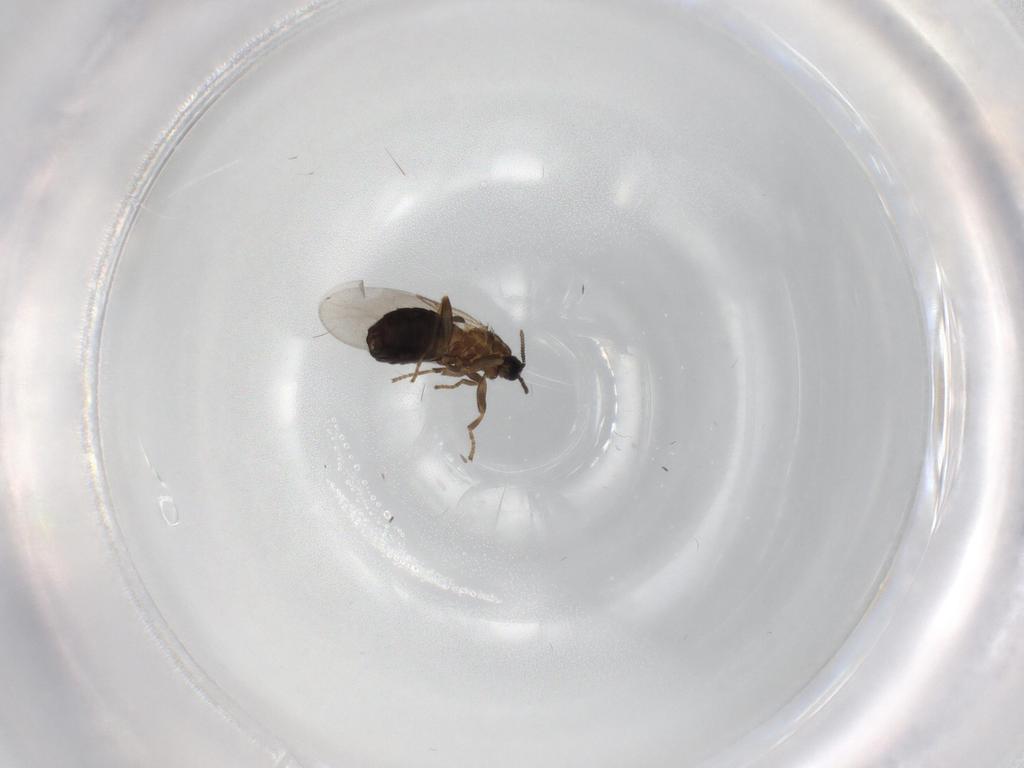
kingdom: Animalia
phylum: Arthropoda
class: Insecta
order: Diptera
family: Scatopsidae
